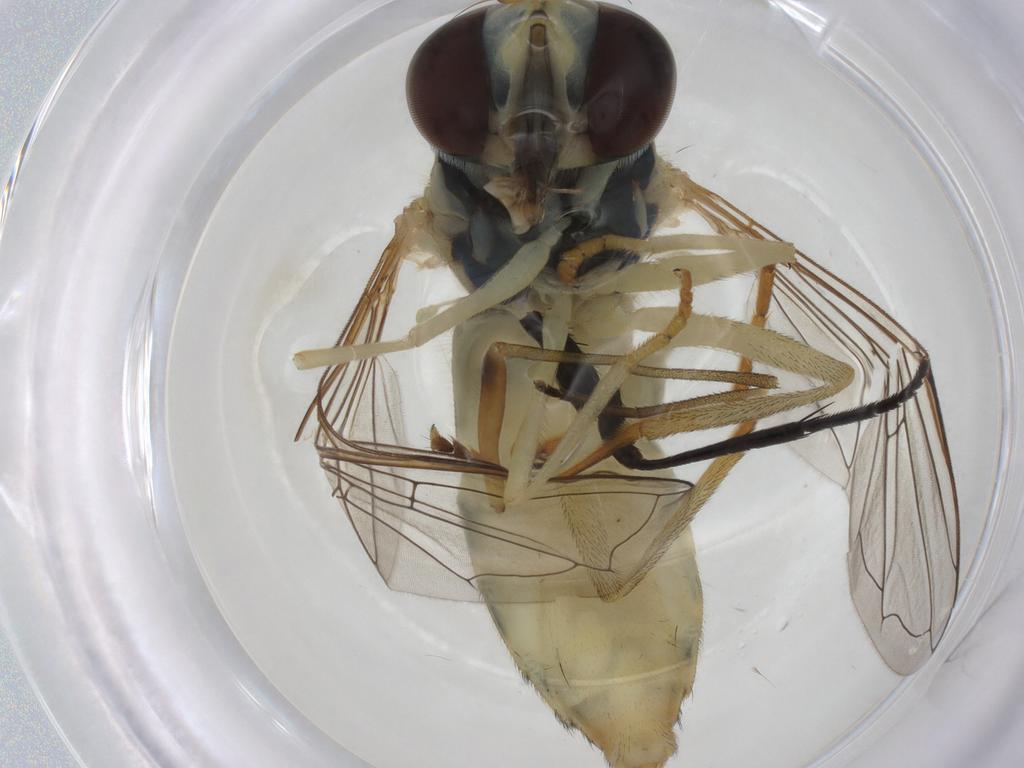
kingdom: Animalia
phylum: Arthropoda
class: Insecta
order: Diptera
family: Syrphidae
